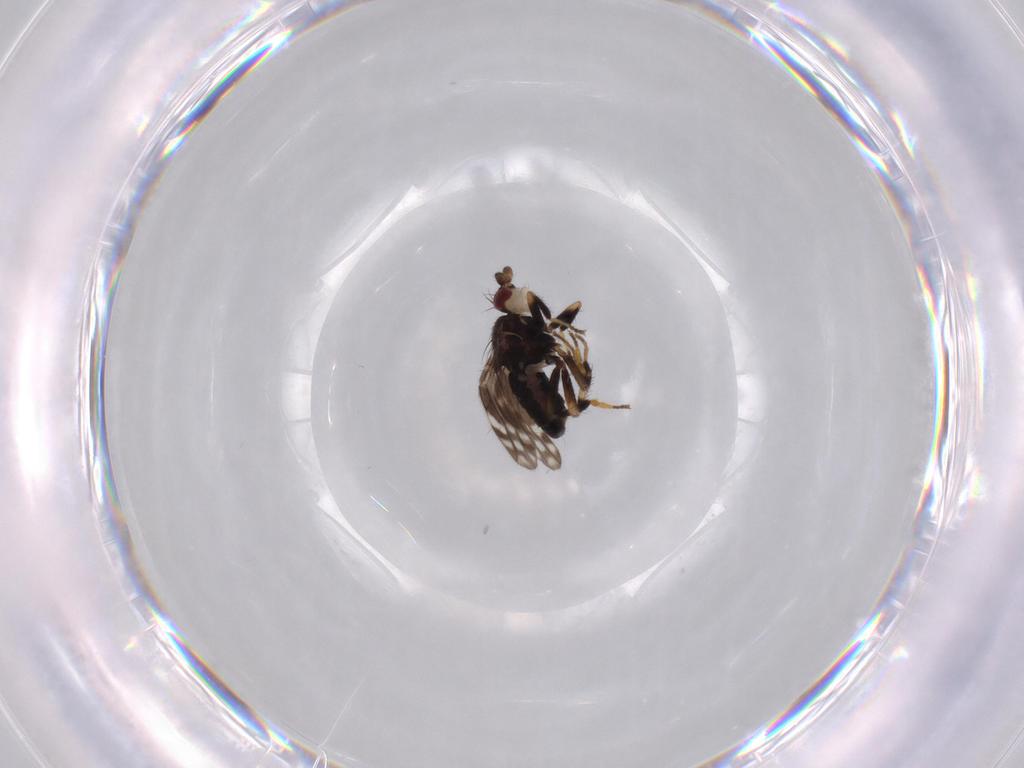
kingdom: Animalia
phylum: Arthropoda
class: Insecta
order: Diptera
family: Sphaeroceridae
